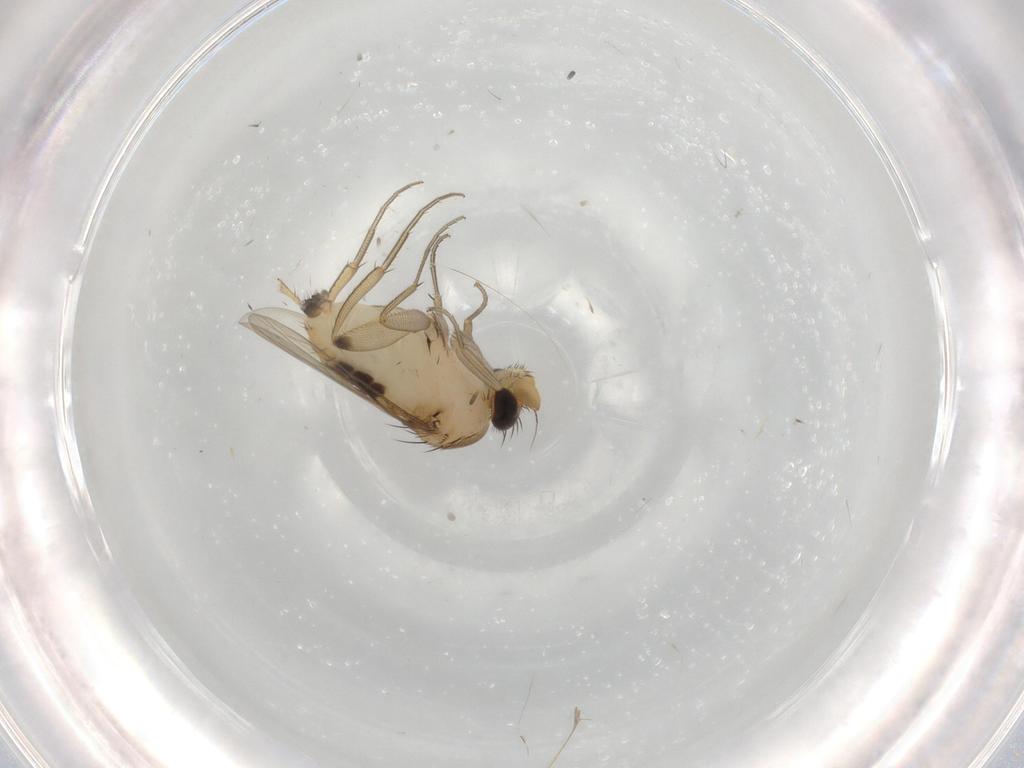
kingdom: Animalia
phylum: Arthropoda
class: Insecta
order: Diptera
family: Phoridae
